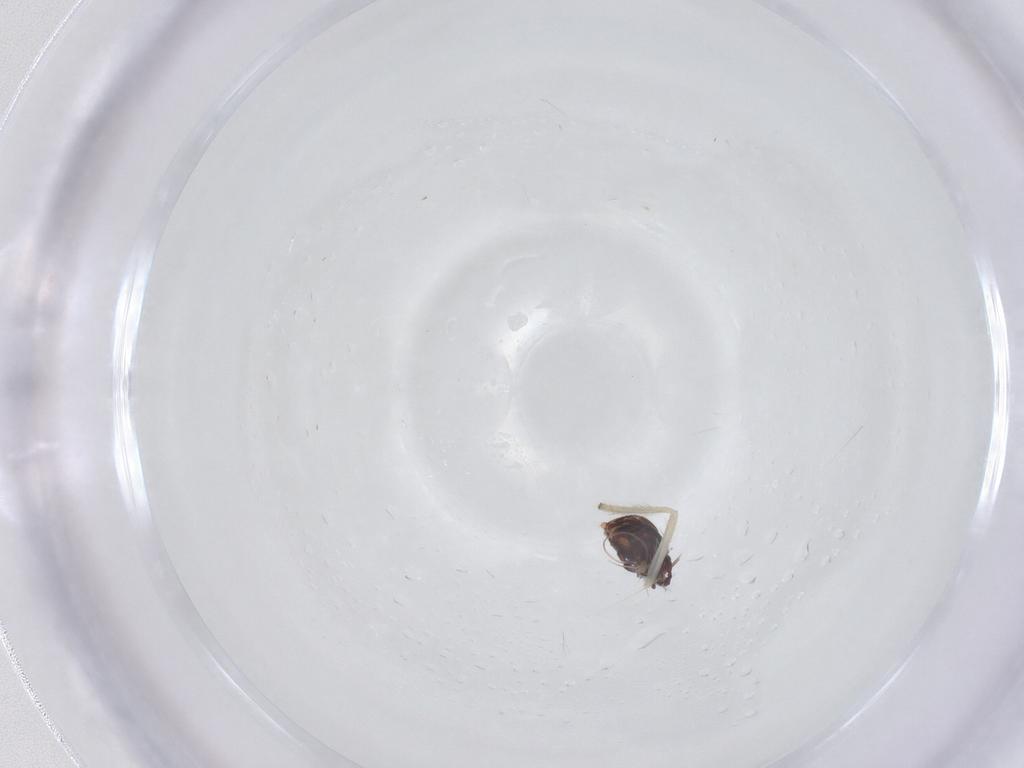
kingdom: Animalia
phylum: Arthropoda
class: Arachnida
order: Sarcoptiformes
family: Neoliodidae
